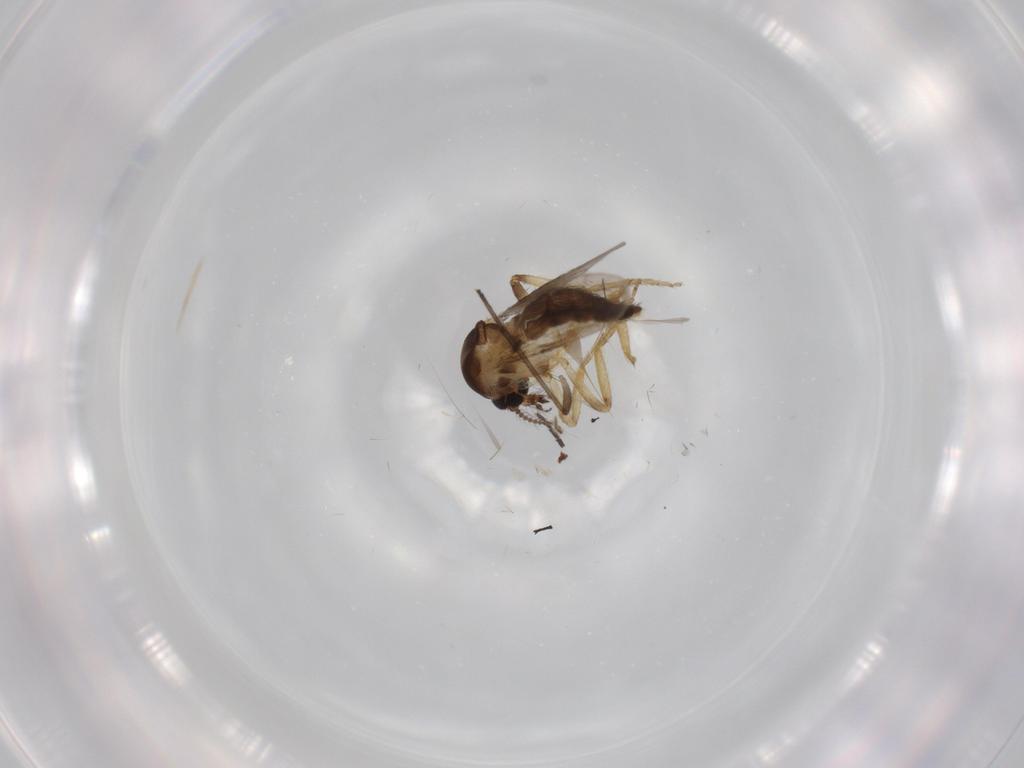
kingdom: Animalia
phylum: Arthropoda
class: Insecta
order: Diptera
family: Sciaridae
